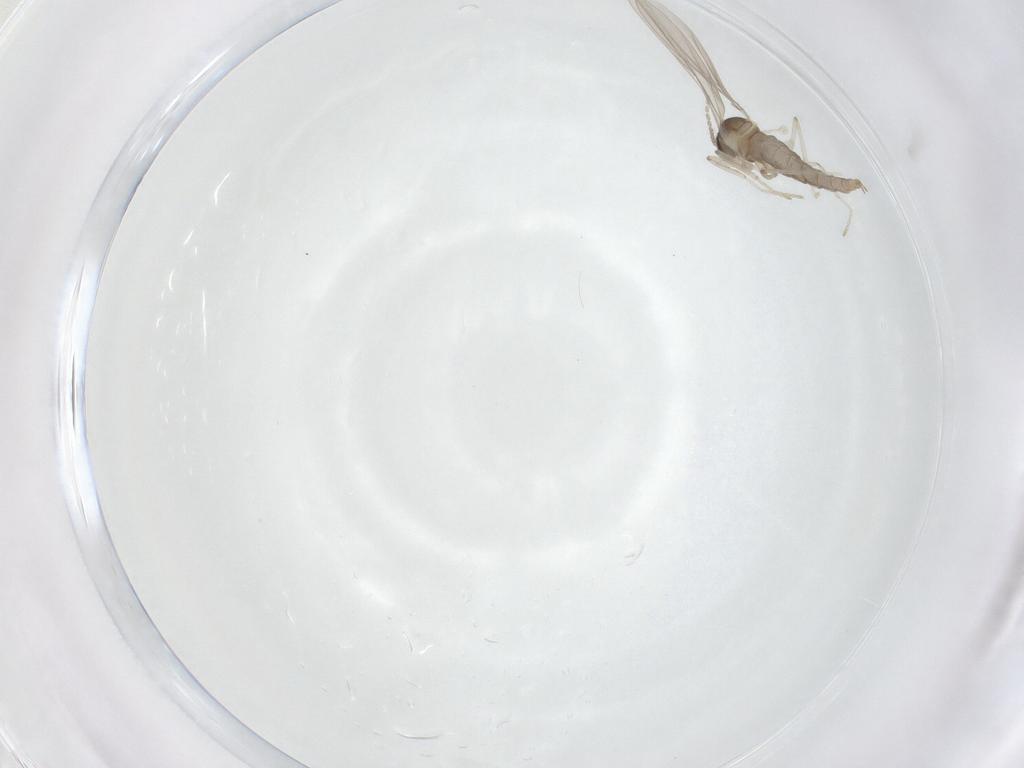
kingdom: Animalia
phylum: Arthropoda
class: Insecta
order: Diptera
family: Cecidomyiidae
